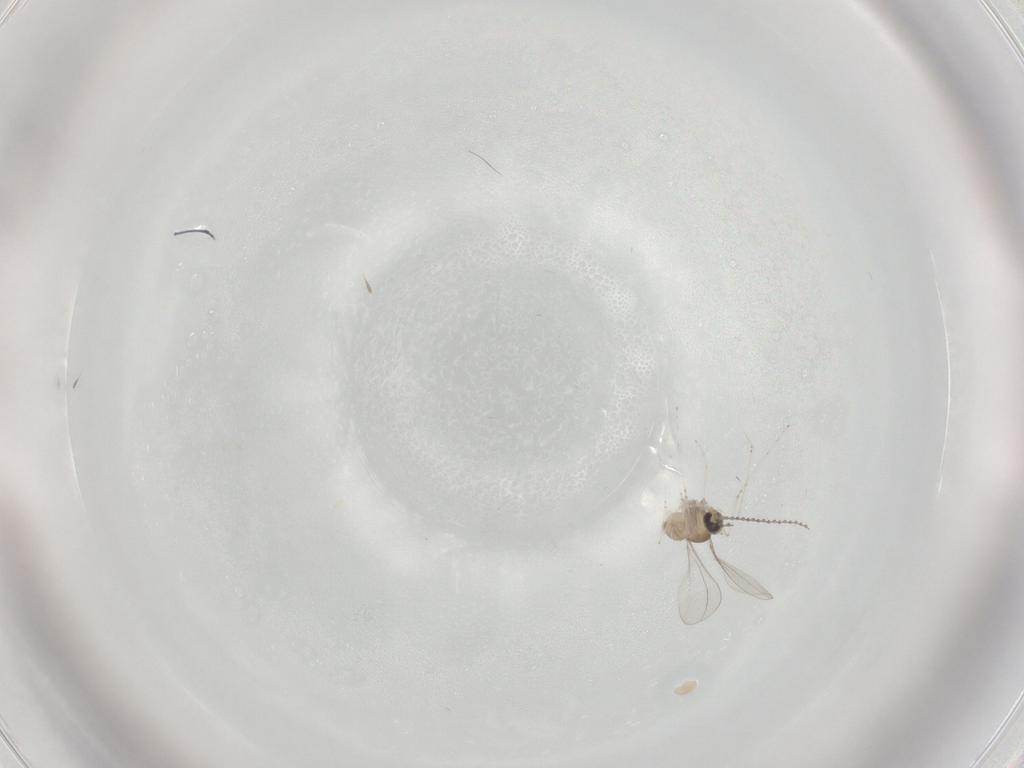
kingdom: Animalia
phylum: Arthropoda
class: Insecta
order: Diptera
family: Cecidomyiidae
